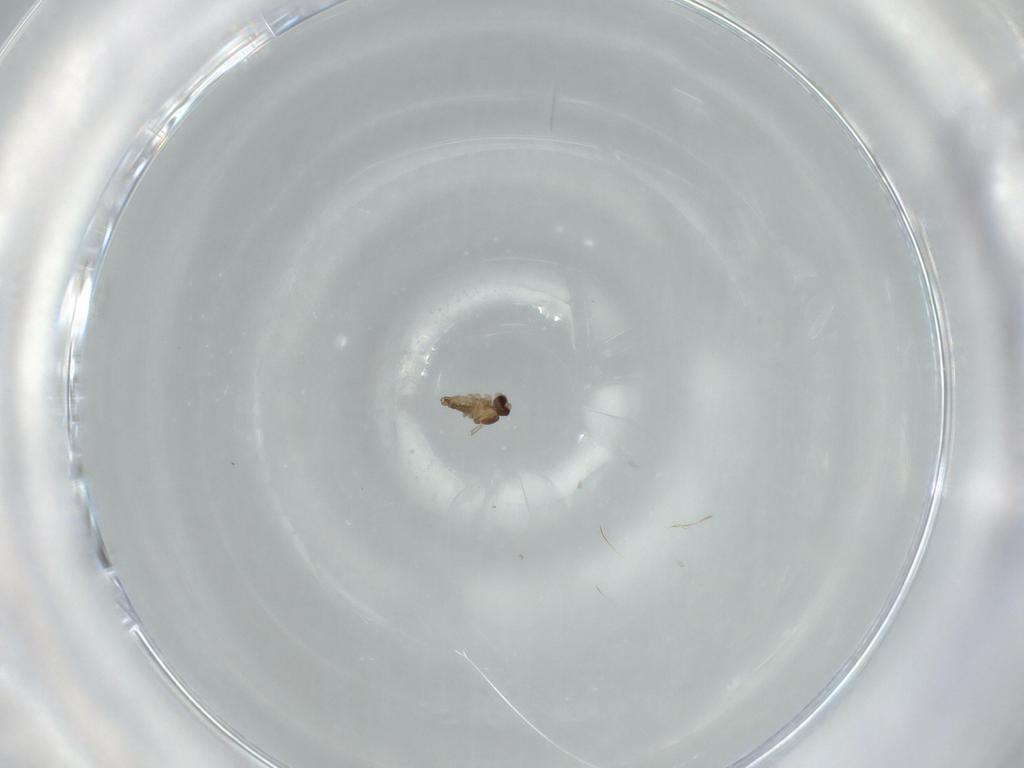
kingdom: Animalia
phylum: Arthropoda
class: Insecta
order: Diptera
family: Cecidomyiidae
